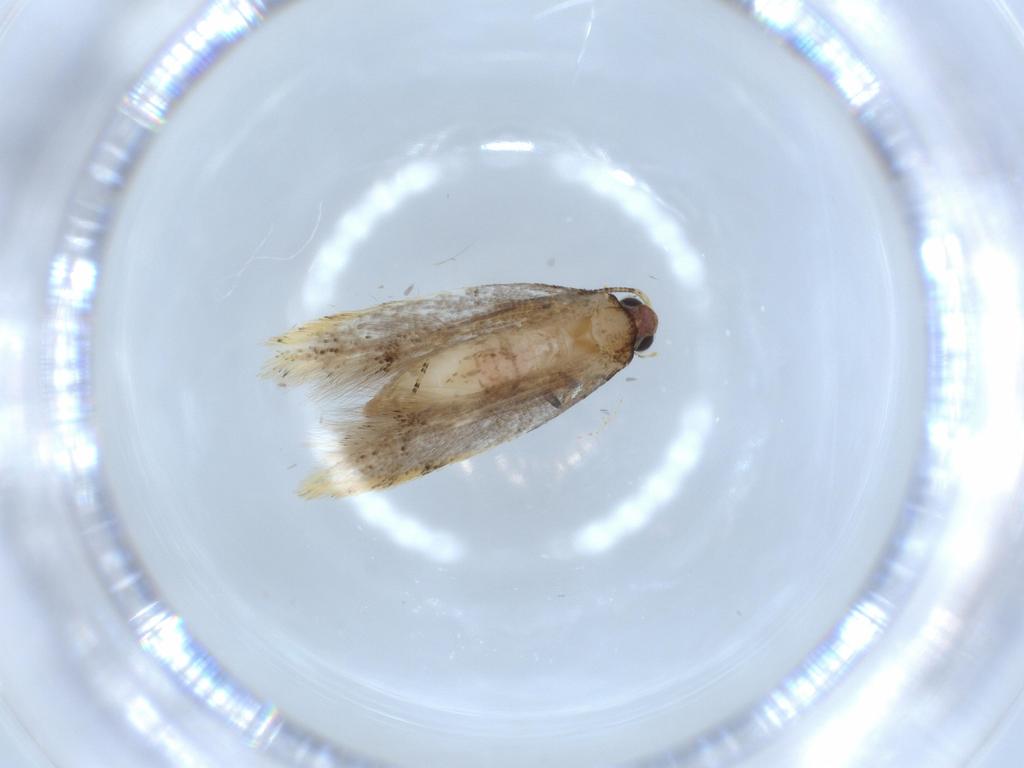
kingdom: Animalia
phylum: Arthropoda
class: Insecta
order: Lepidoptera
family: Tineidae
